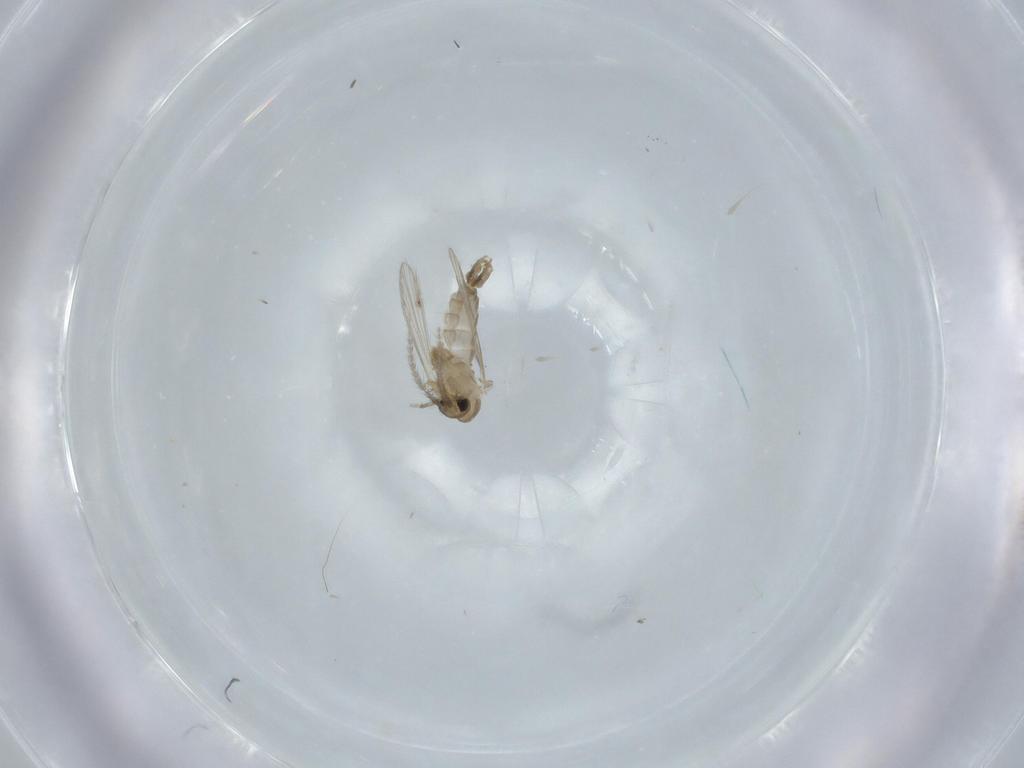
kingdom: Animalia
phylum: Arthropoda
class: Insecta
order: Diptera
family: Psychodidae
